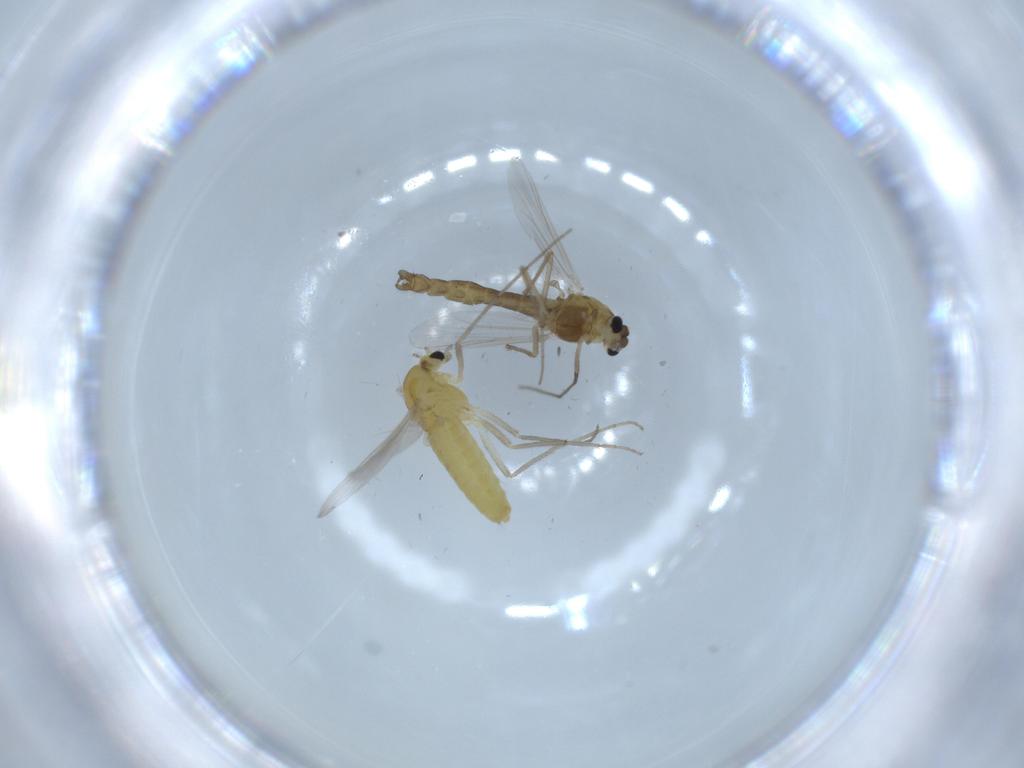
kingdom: Animalia
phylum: Arthropoda
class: Insecta
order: Diptera
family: Chironomidae
